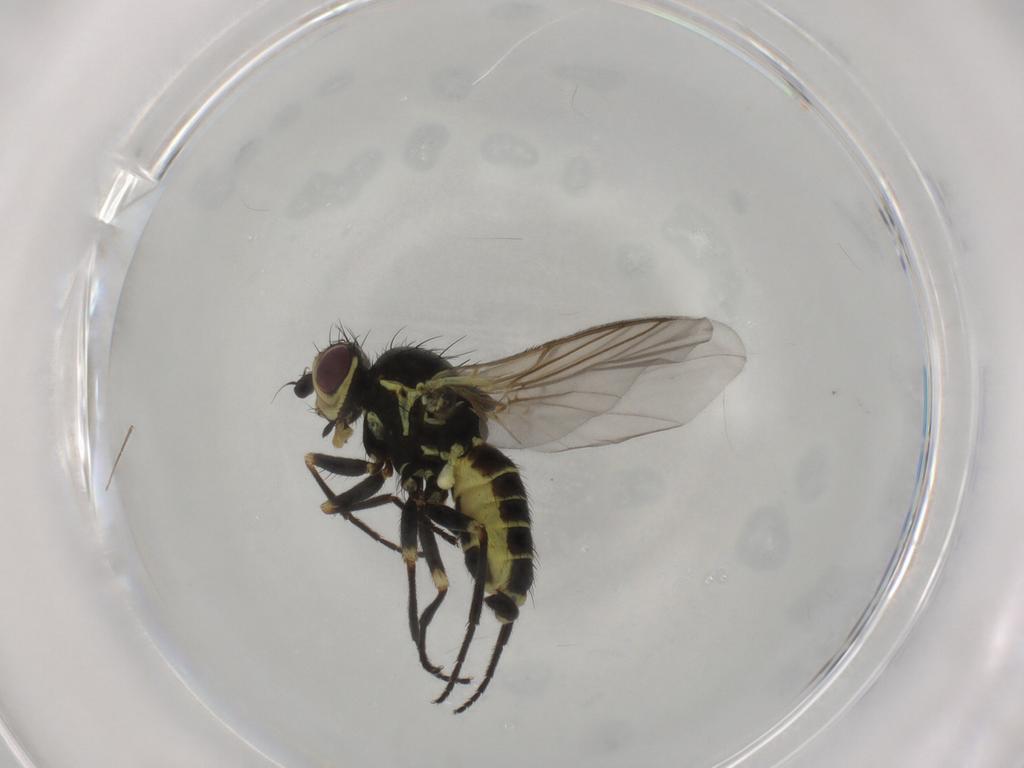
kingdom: Animalia
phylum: Arthropoda
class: Insecta
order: Diptera
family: Agromyzidae
